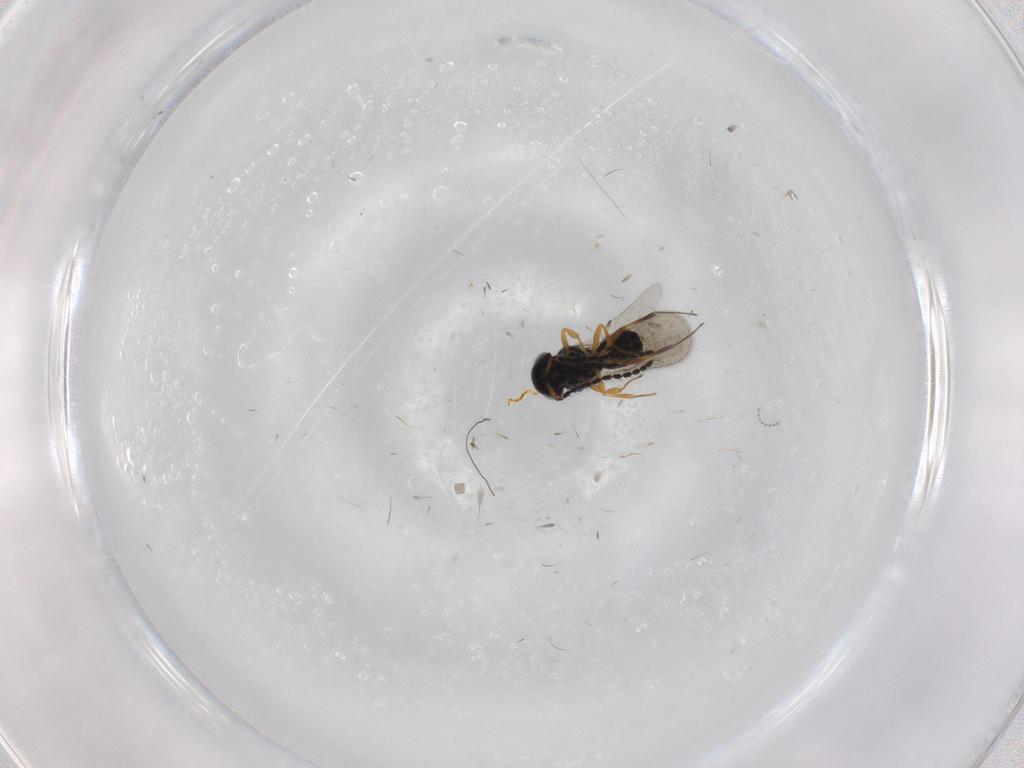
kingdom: Animalia
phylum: Arthropoda
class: Insecta
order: Hymenoptera
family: Scelionidae
